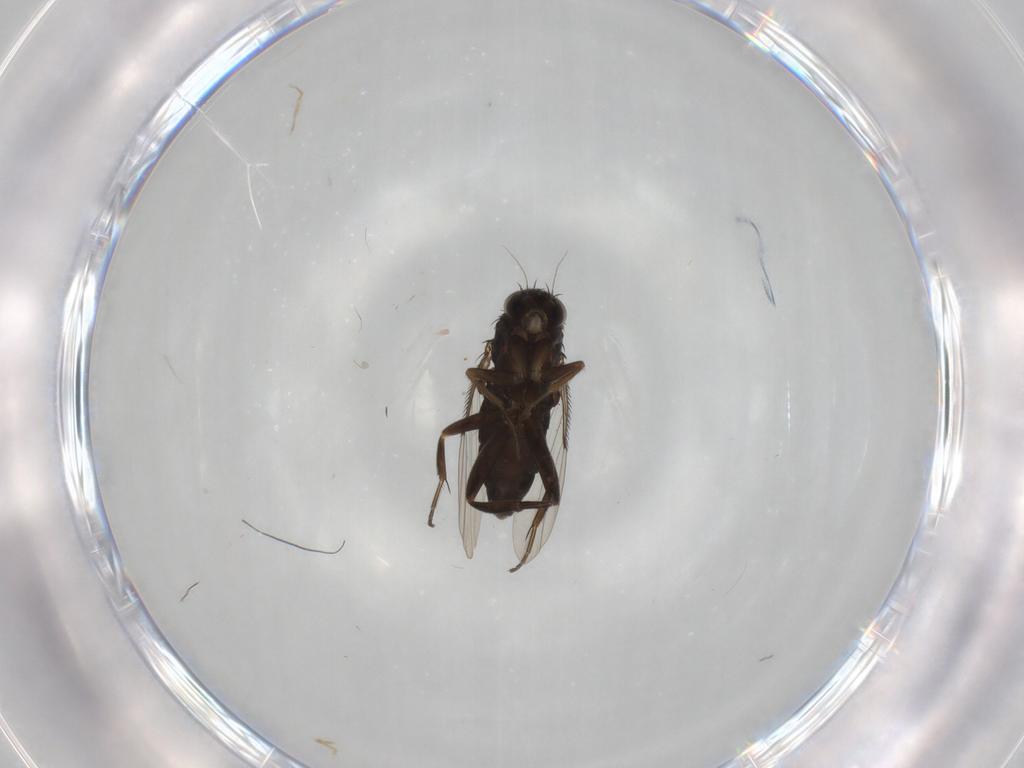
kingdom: Animalia
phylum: Arthropoda
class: Insecta
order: Diptera
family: Phoridae
